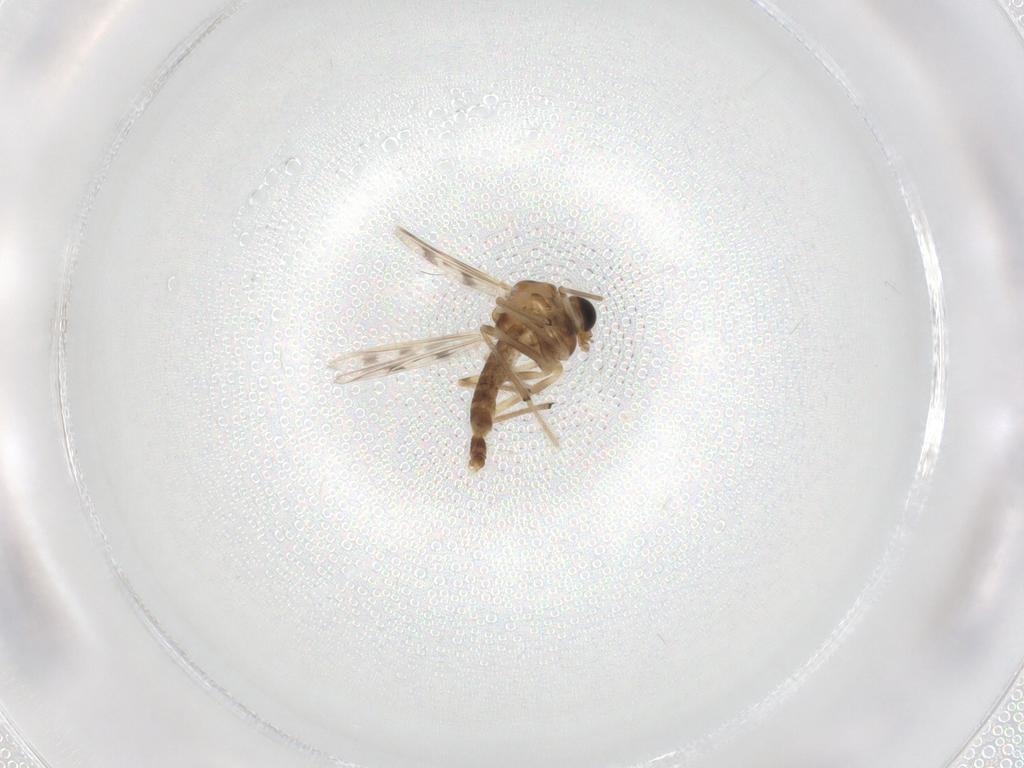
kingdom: Animalia
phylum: Arthropoda
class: Insecta
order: Diptera
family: Chironomidae
